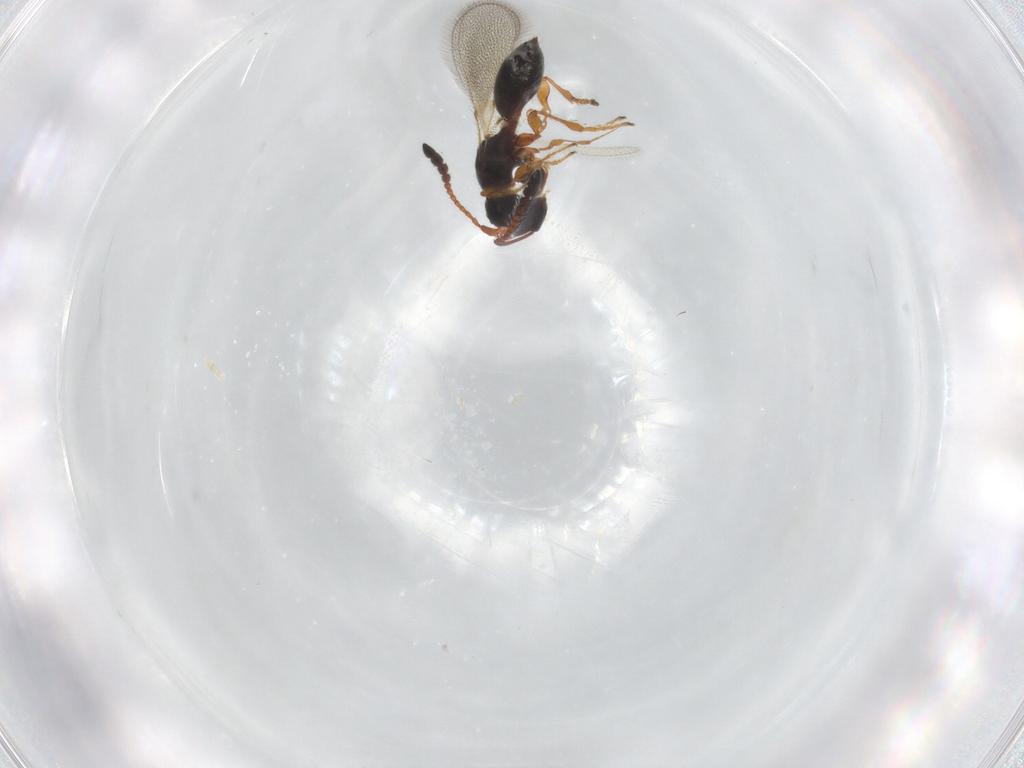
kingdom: Animalia
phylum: Arthropoda
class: Insecta
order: Hymenoptera
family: Diapriidae
